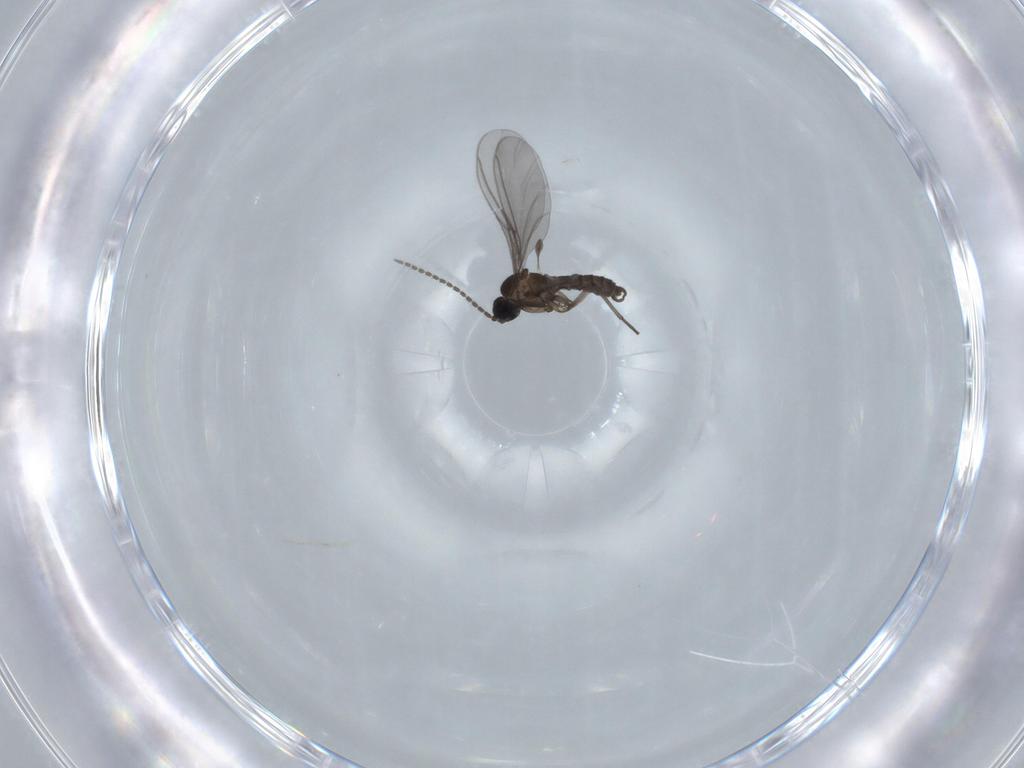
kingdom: Animalia
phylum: Arthropoda
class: Insecta
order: Diptera
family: Sciaridae
